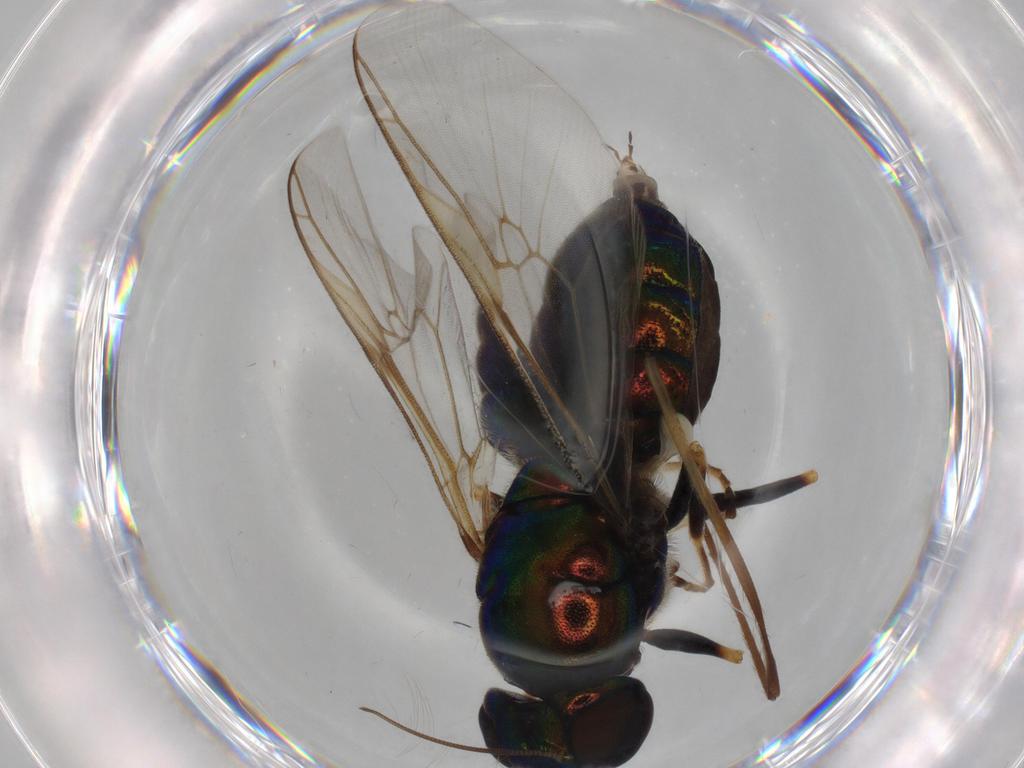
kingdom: Animalia
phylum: Arthropoda
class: Insecta
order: Diptera
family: Stratiomyidae
